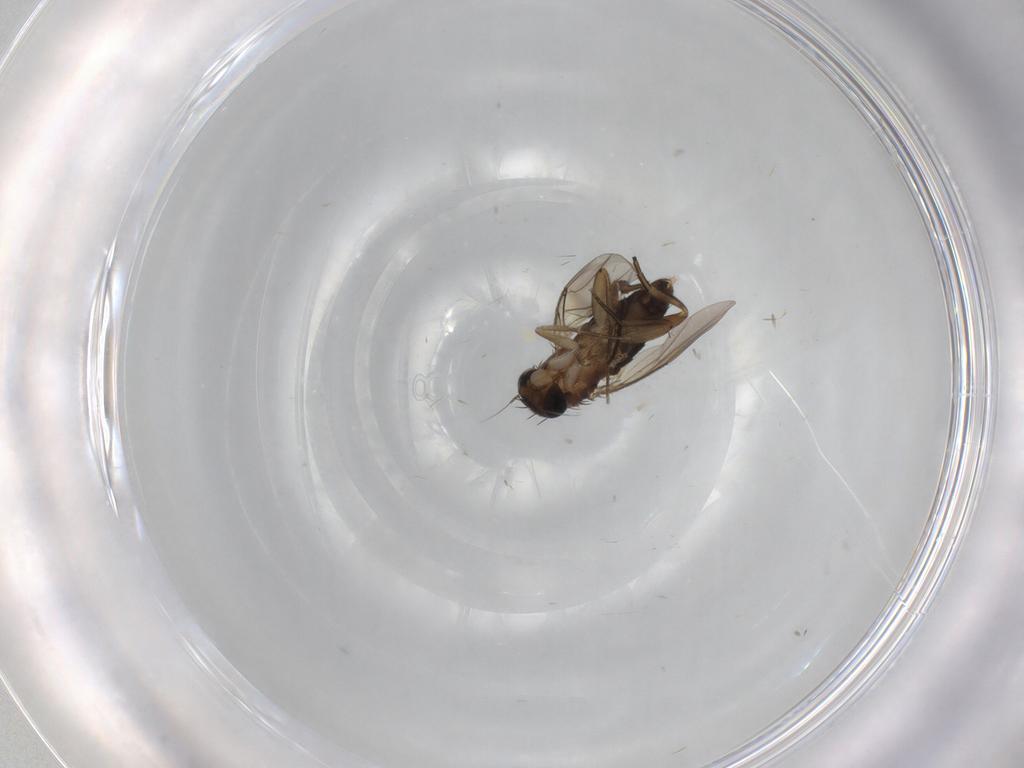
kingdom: Animalia
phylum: Arthropoda
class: Insecta
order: Diptera
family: Phoridae
